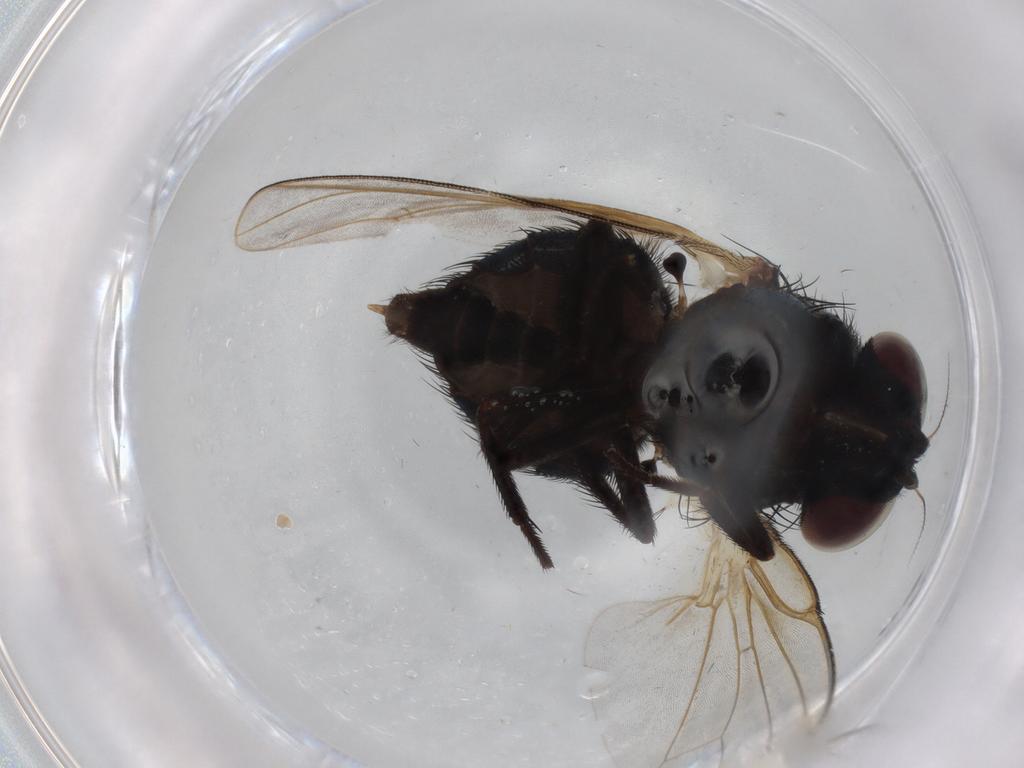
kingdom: Animalia
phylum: Arthropoda
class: Insecta
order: Diptera
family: Lonchaeidae
